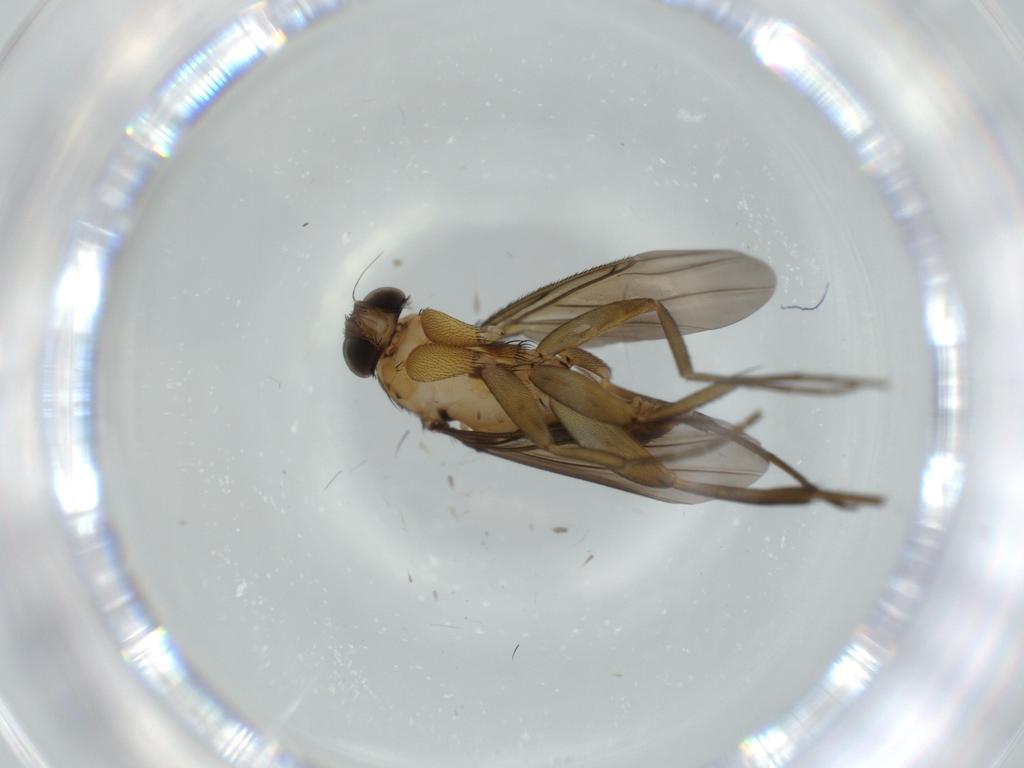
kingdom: Animalia
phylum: Arthropoda
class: Insecta
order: Diptera
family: Phoridae
